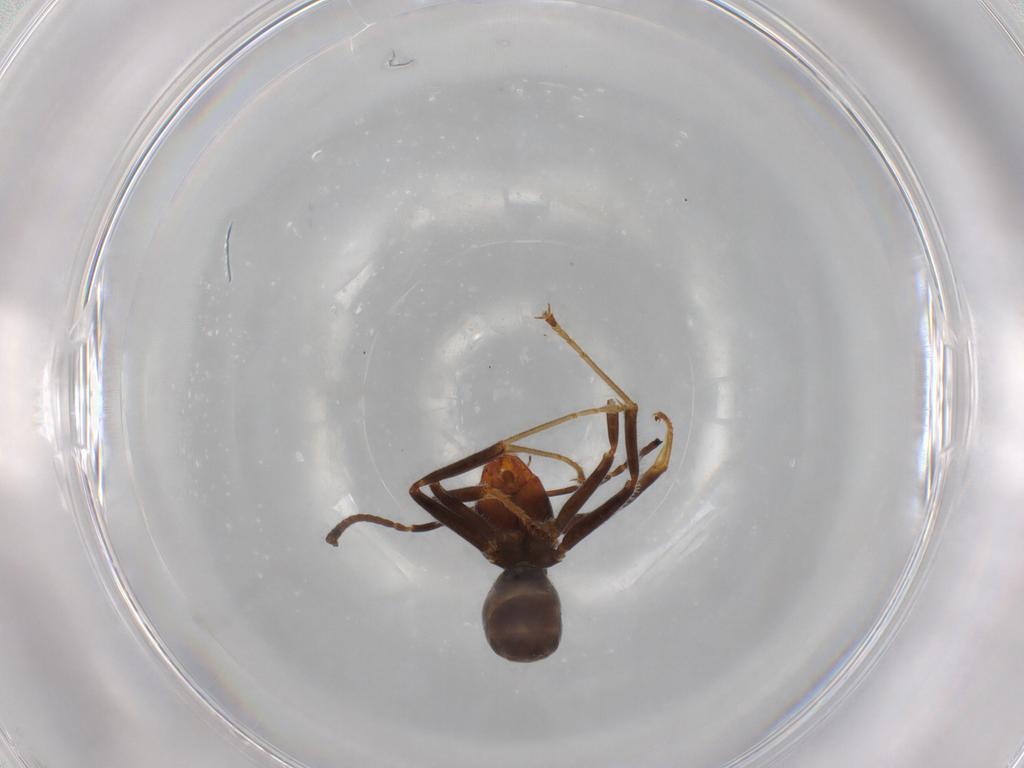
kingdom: Animalia
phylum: Arthropoda
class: Insecta
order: Hymenoptera
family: Formicidae
